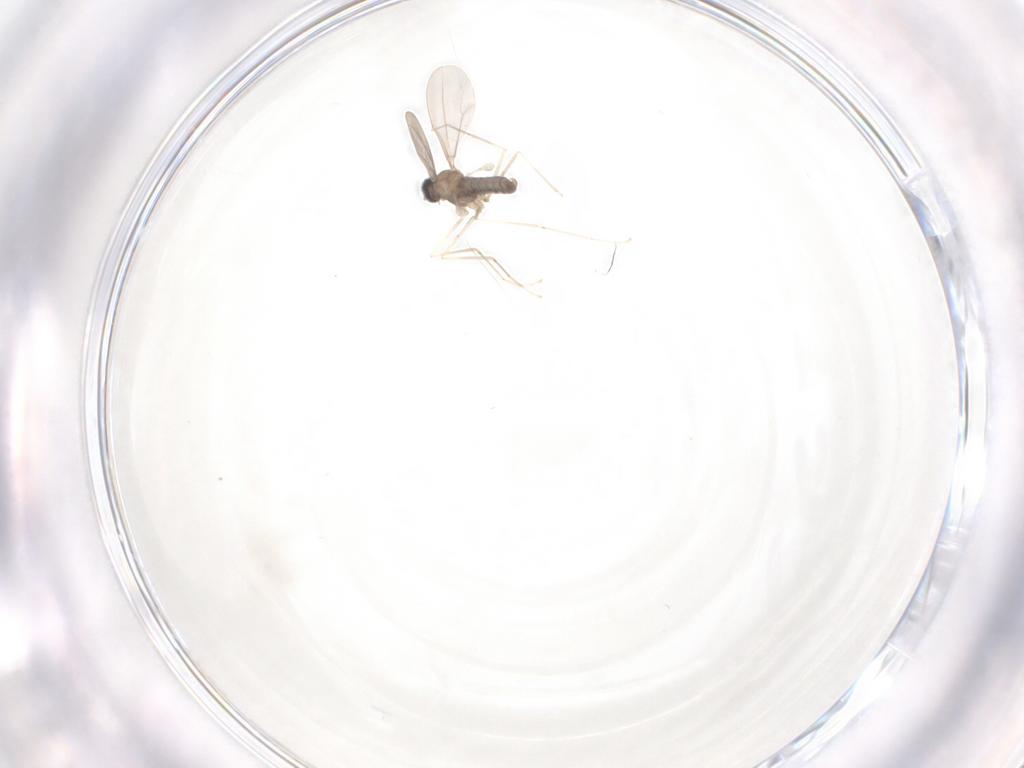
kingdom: Animalia
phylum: Arthropoda
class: Insecta
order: Diptera
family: Cecidomyiidae
